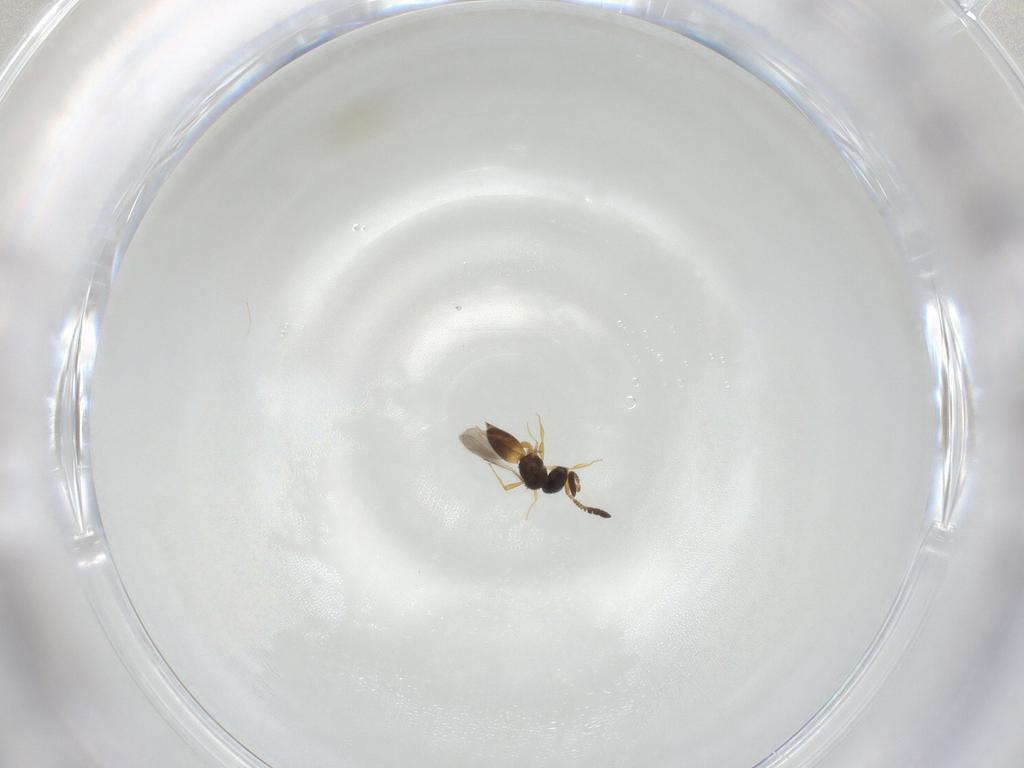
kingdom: Animalia
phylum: Arthropoda
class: Insecta
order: Hymenoptera
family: Ceraphronidae
